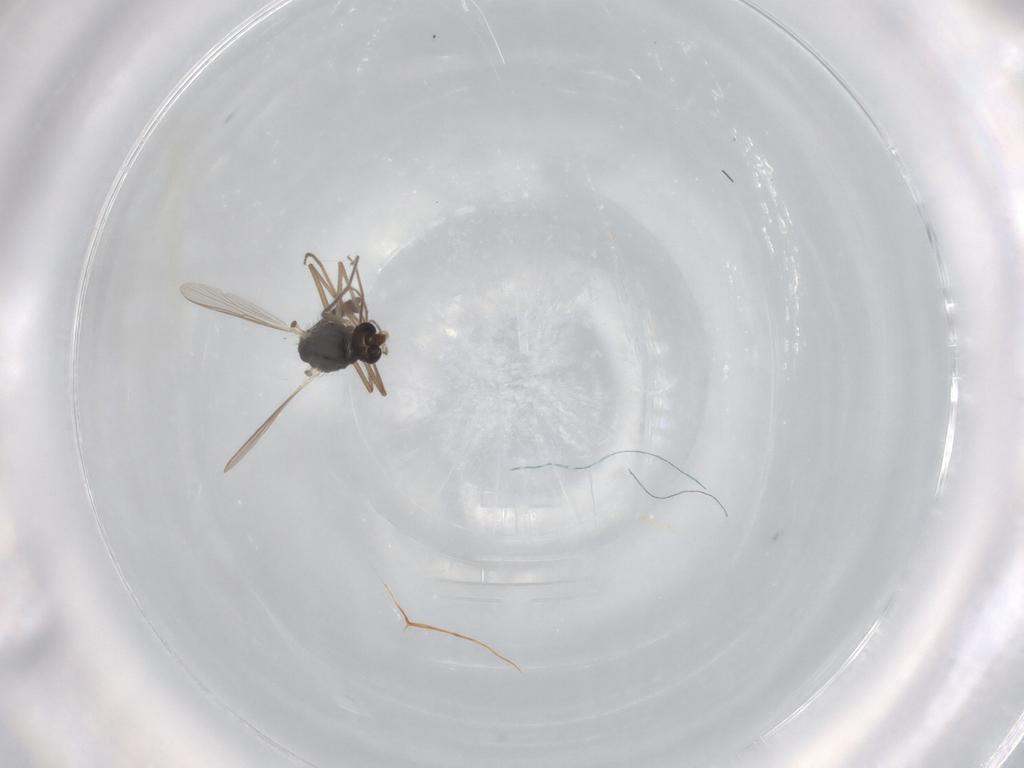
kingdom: Animalia
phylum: Arthropoda
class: Insecta
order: Diptera
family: Chironomidae
